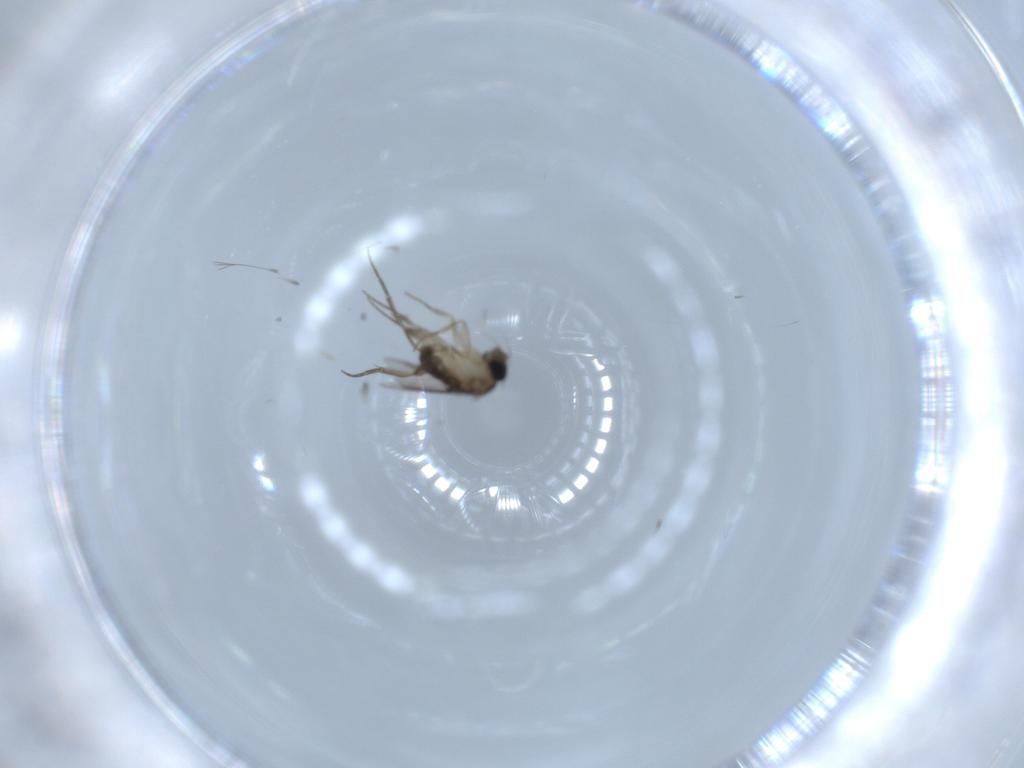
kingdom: Animalia
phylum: Arthropoda
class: Insecta
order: Diptera
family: Phoridae
